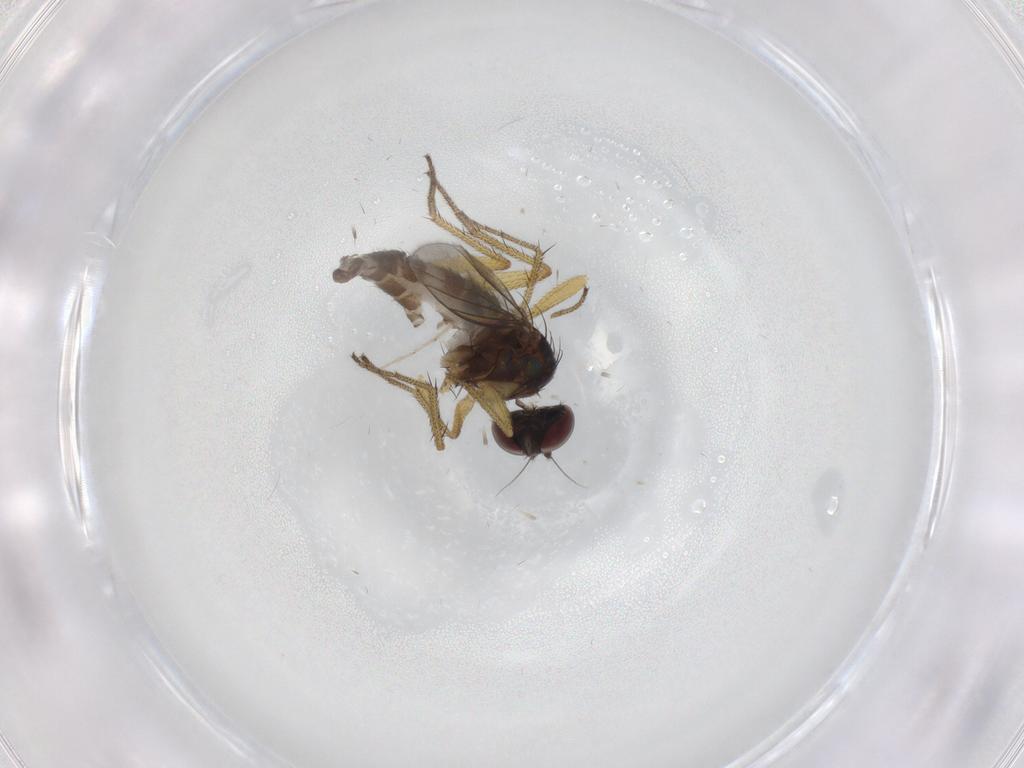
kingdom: Animalia
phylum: Arthropoda
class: Insecta
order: Diptera
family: Dolichopodidae
